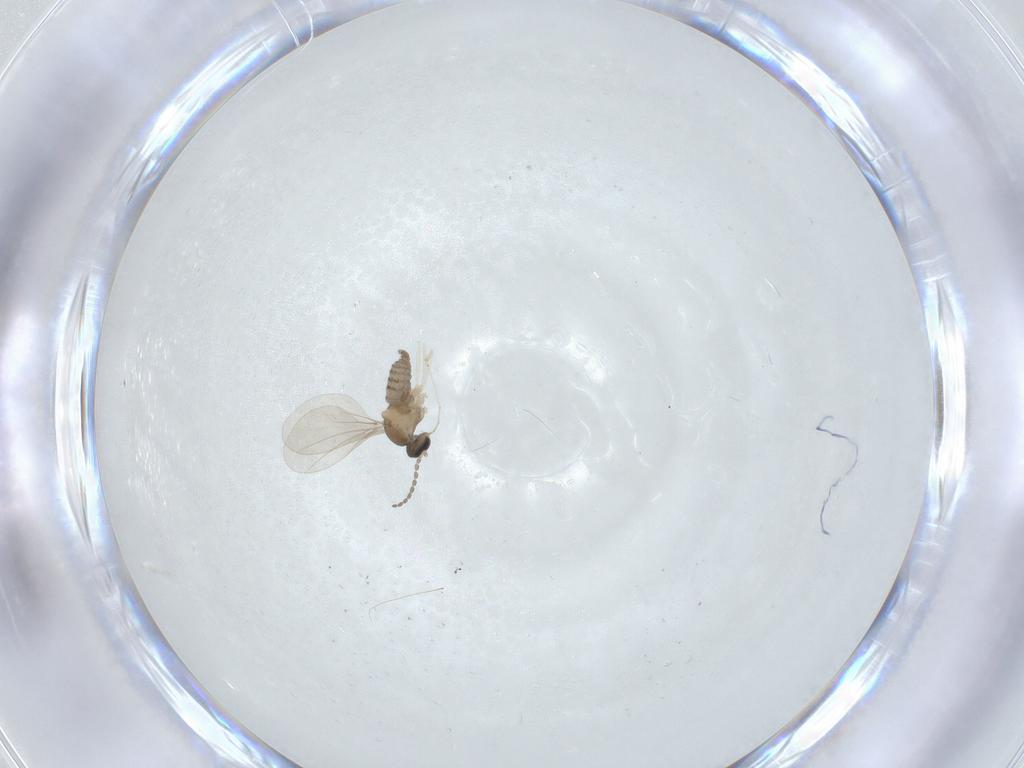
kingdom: Animalia
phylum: Arthropoda
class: Insecta
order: Diptera
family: Cecidomyiidae
